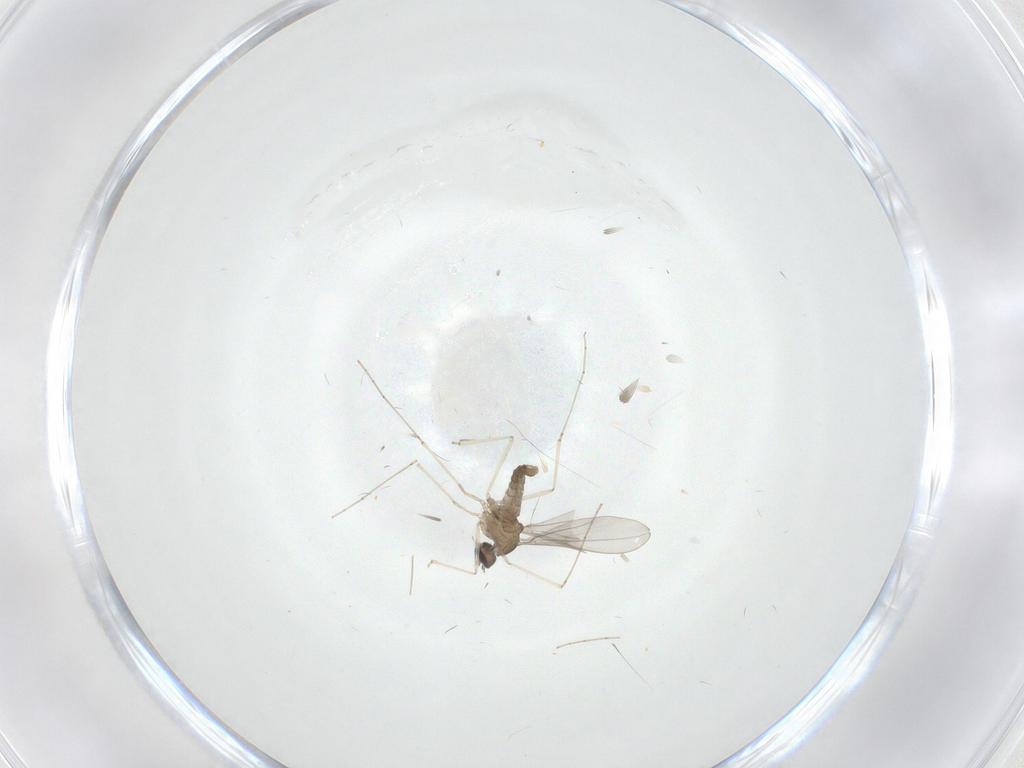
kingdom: Animalia
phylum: Arthropoda
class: Insecta
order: Diptera
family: Cecidomyiidae
